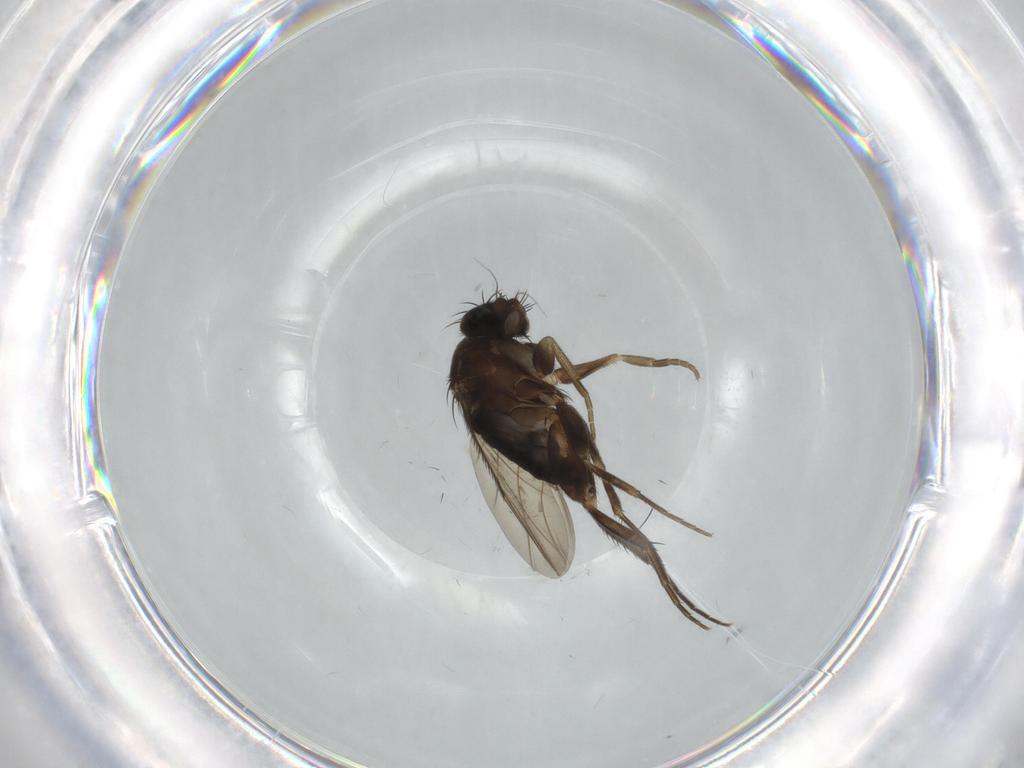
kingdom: Animalia
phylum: Arthropoda
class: Insecta
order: Diptera
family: Phoridae
